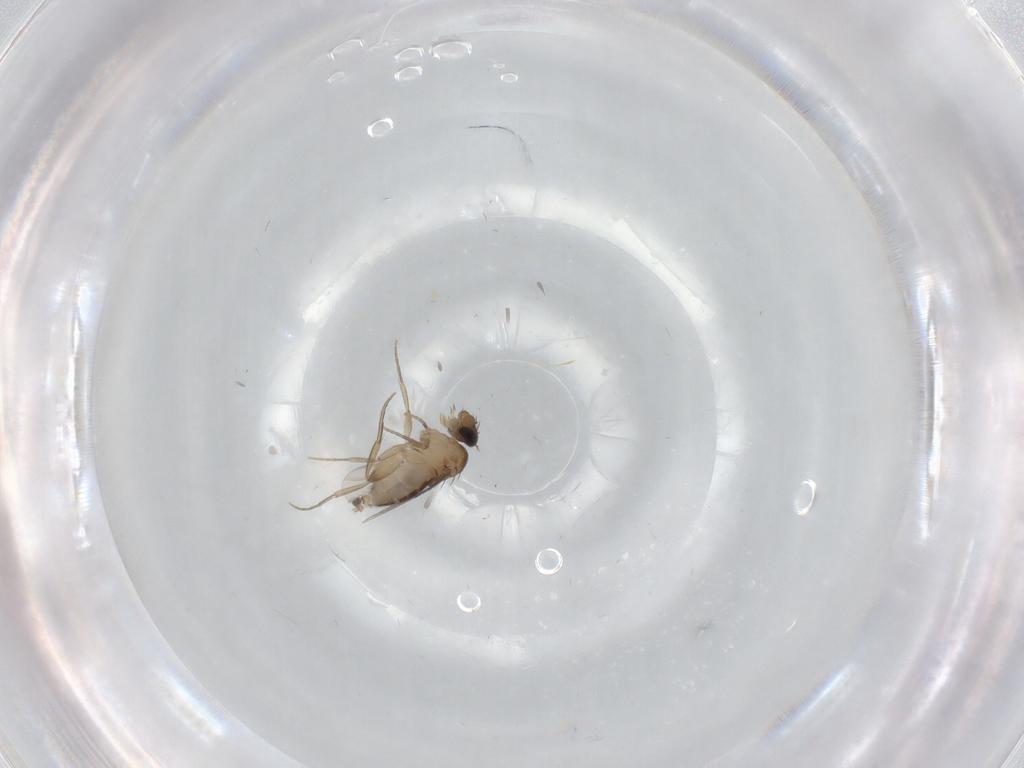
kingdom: Animalia
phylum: Arthropoda
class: Insecta
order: Diptera
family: Phoridae
